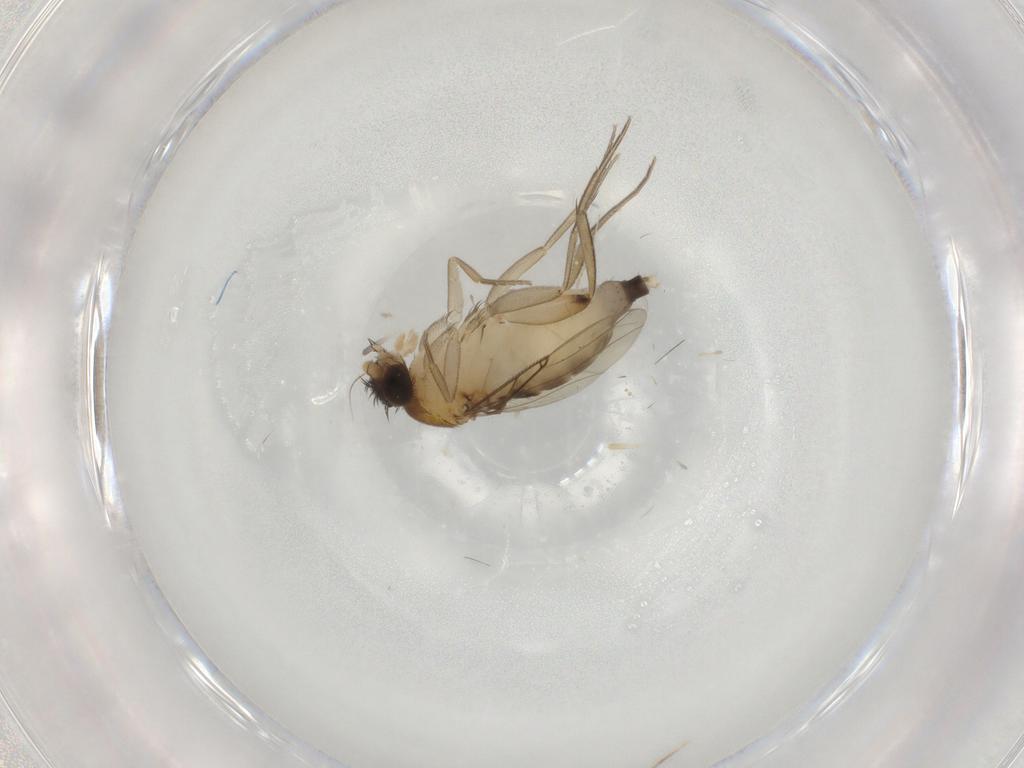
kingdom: Animalia
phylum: Arthropoda
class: Insecta
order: Diptera
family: Phoridae
